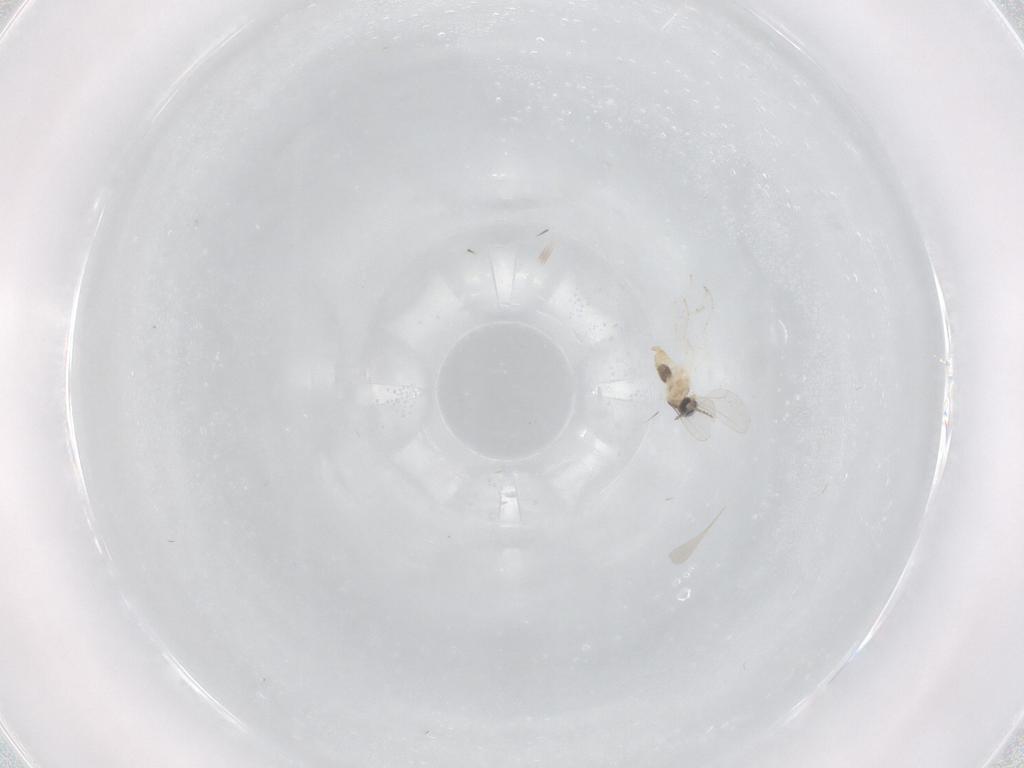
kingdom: Animalia
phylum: Arthropoda
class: Insecta
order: Diptera
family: Cecidomyiidae
